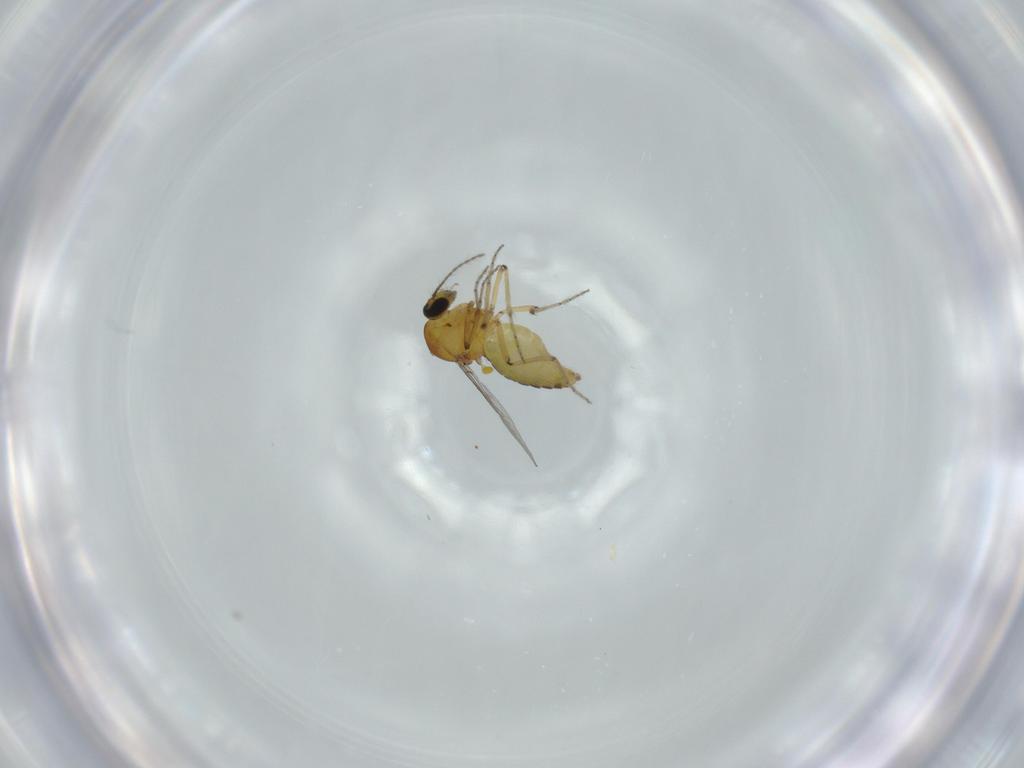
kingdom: Animalia
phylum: Arthropoda
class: Insecta
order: Diptera
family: Ceratopogonidae
